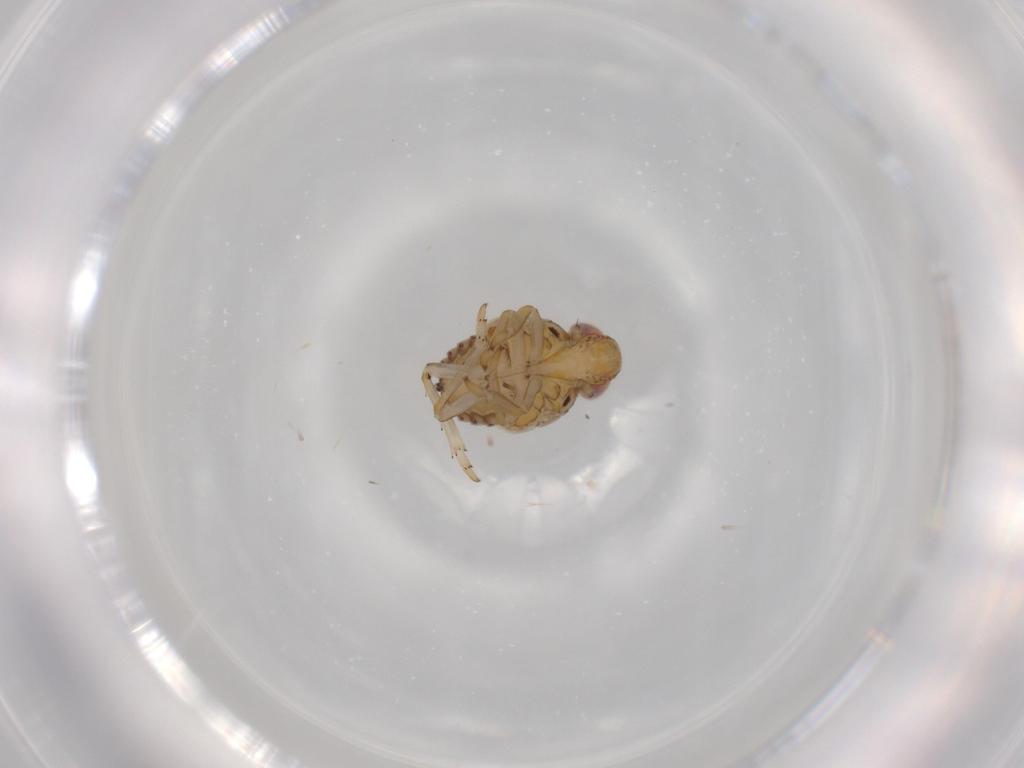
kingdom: Animalia
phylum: Arthropoda
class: Insecta
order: Hemiptera
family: Issidae
